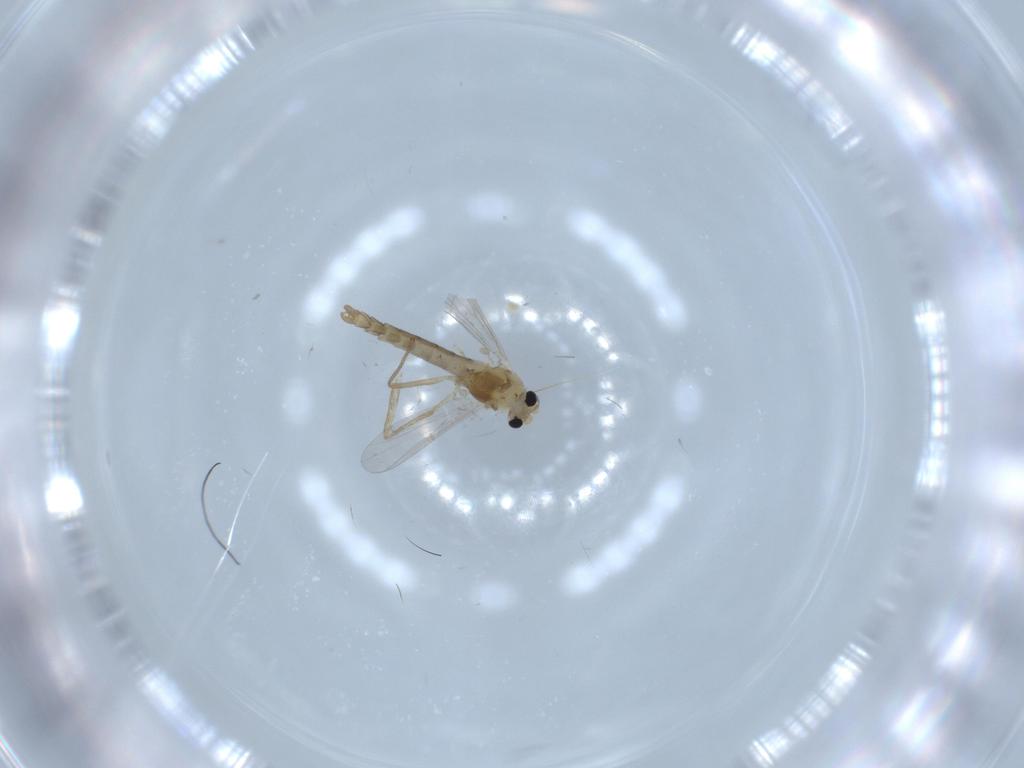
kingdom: Animalia
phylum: Arthropoda
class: Insecta
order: Diptera
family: Chironomidae
